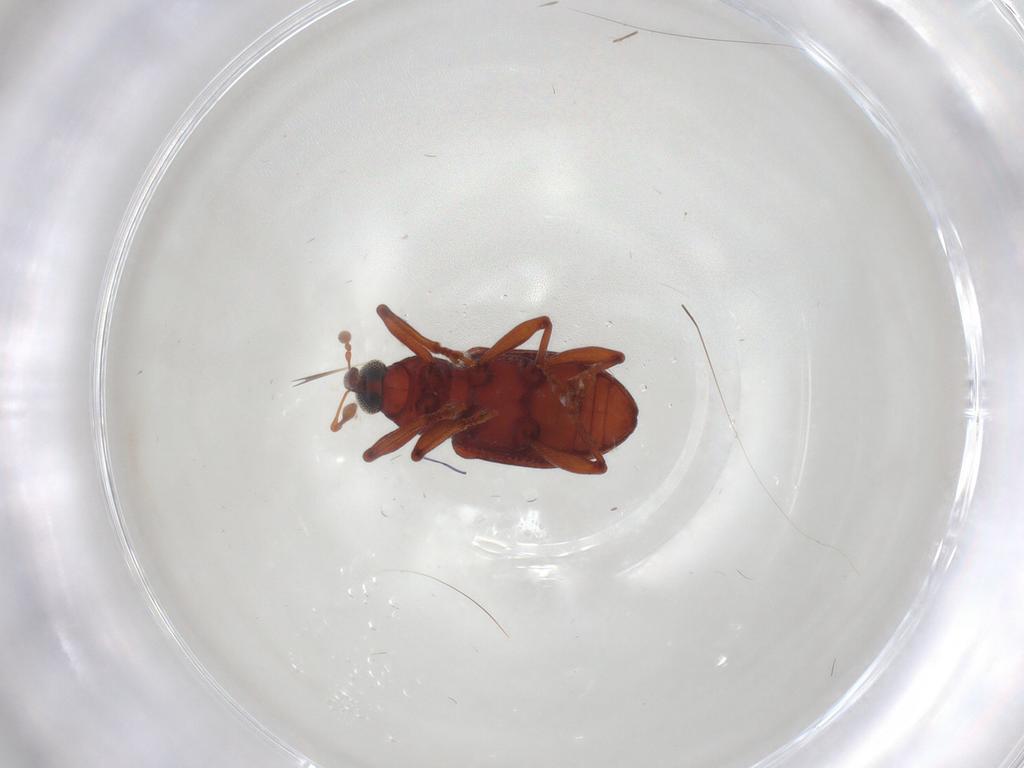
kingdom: Animalia
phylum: Arthropoda
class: Insecta
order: Coleoptera
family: Curculionidae
